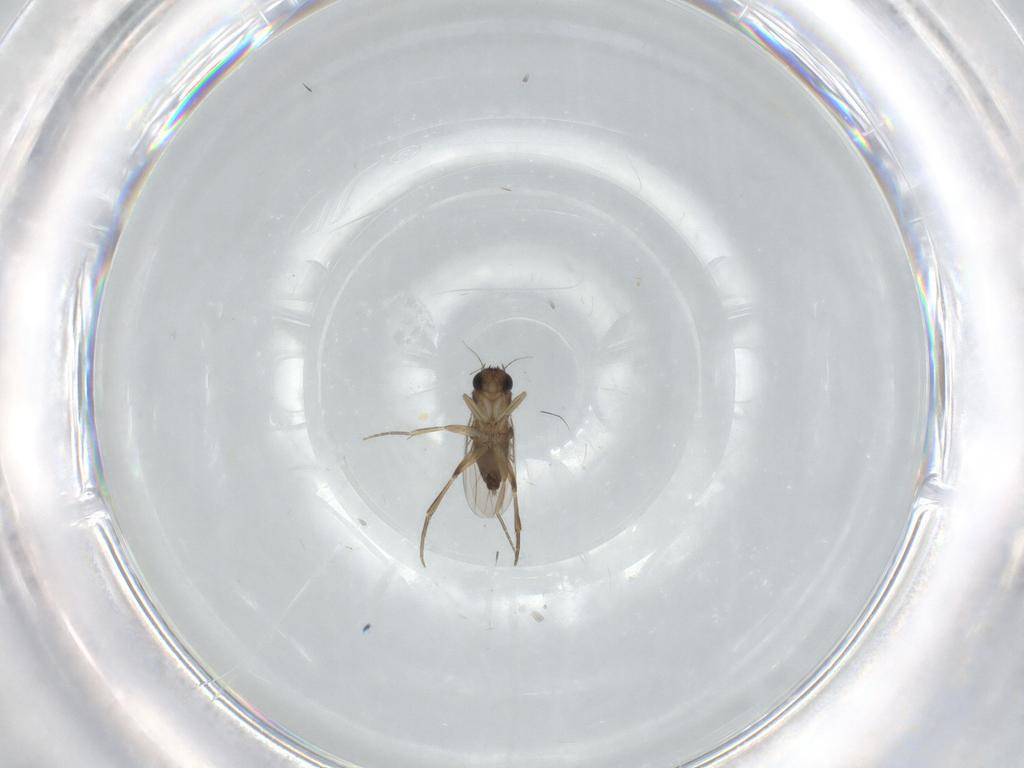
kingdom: Animalia
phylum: Arthropoda
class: Insecta
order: Diptera
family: Phoridae
